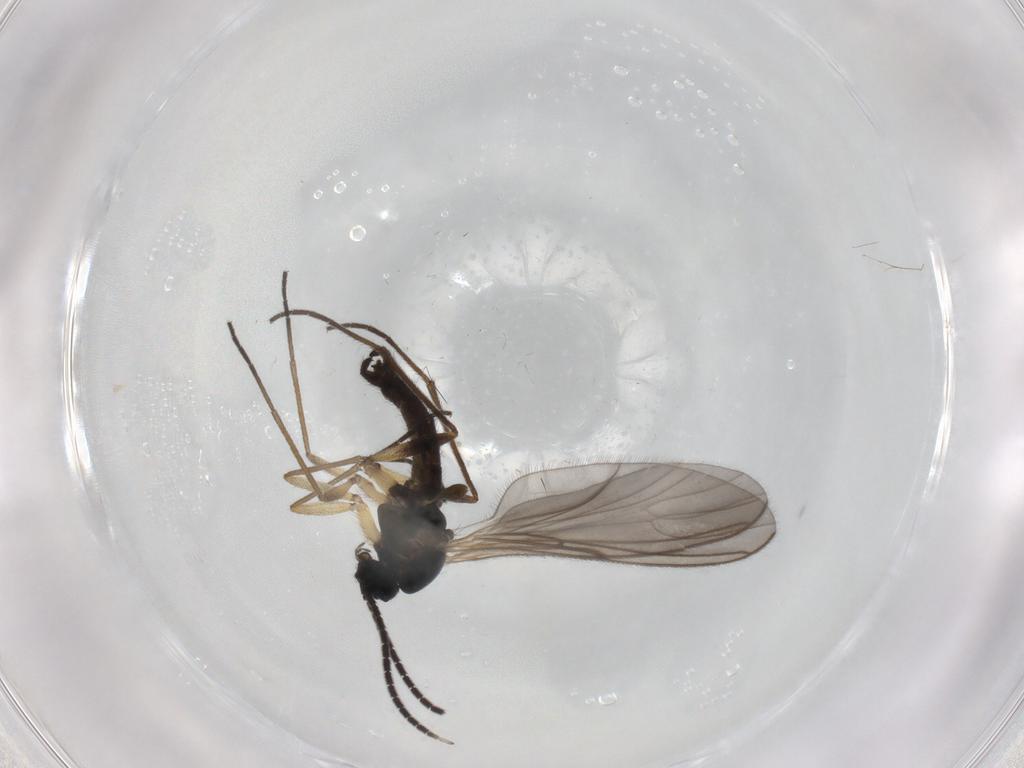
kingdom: Animalia
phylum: Arthropoda
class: Insecta
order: Diptera
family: Sciaridae
